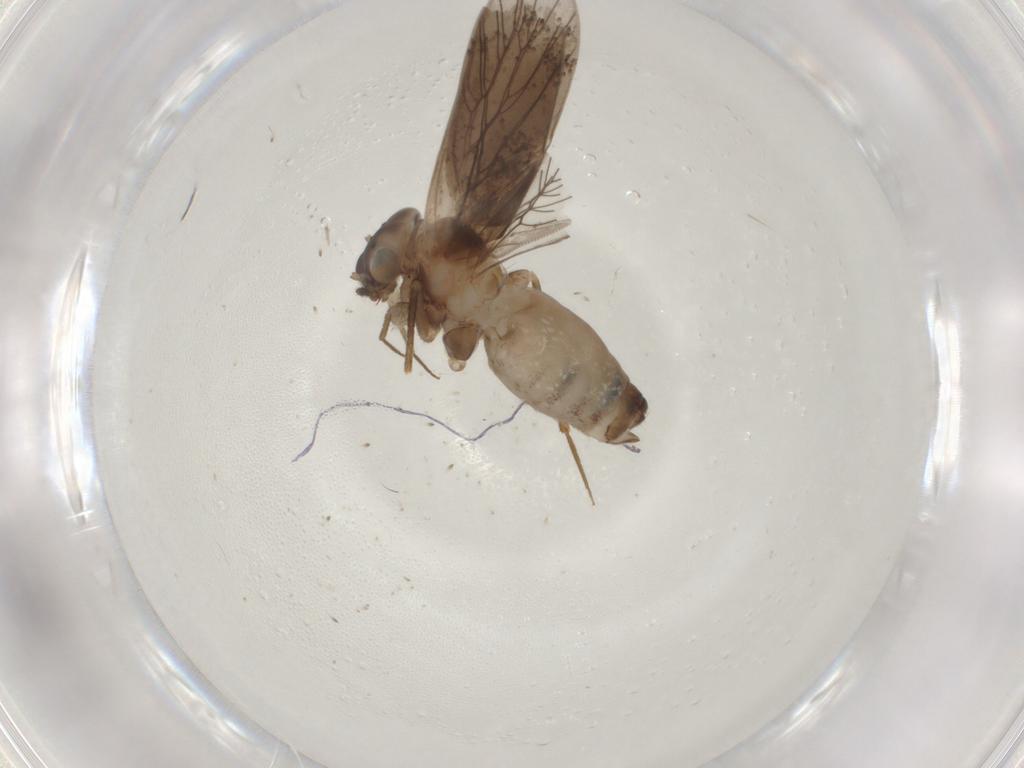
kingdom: Animalia
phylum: Arthropoda
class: Insecta
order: Psocodea
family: Lepidopsocidae
